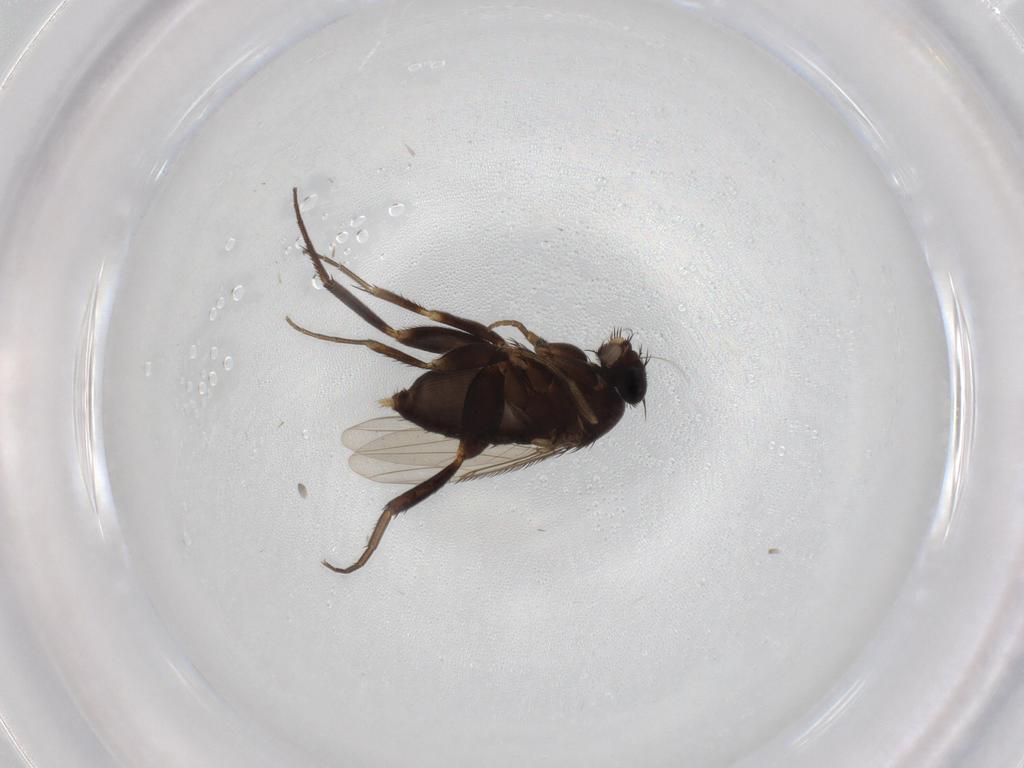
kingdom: Animalia
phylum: Arthropoda
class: Insecta
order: Diptera
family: Phoridae
